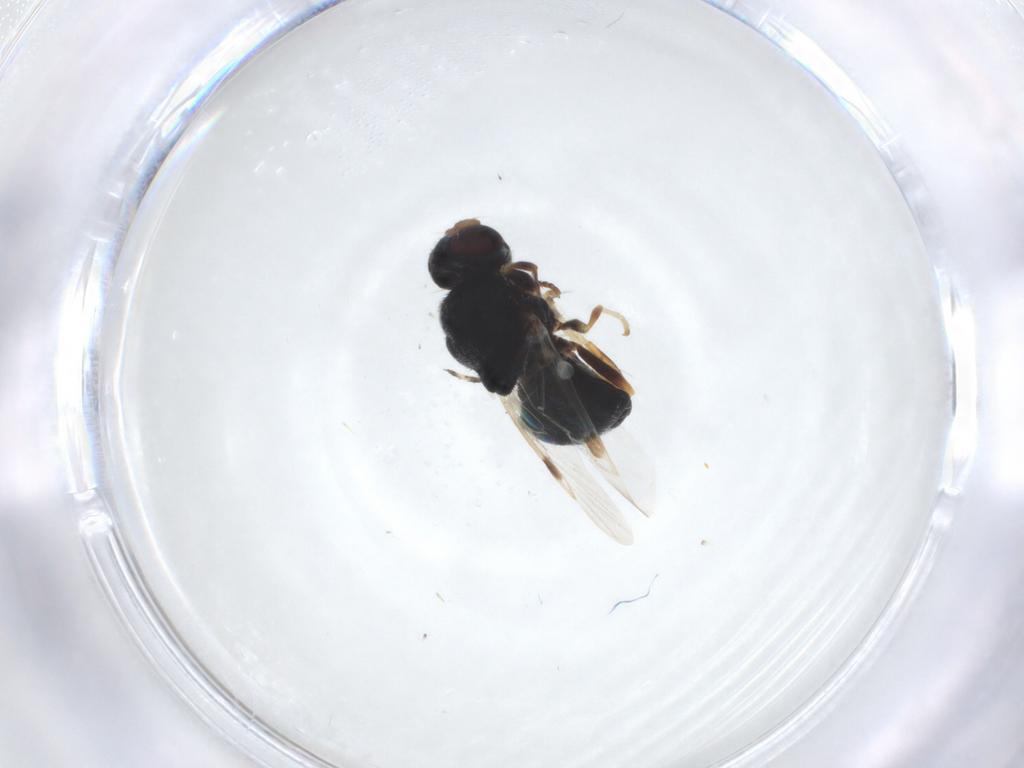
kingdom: Animalia
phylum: Arthropoda
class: Insecta
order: Diptera
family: Stratiomyidae
